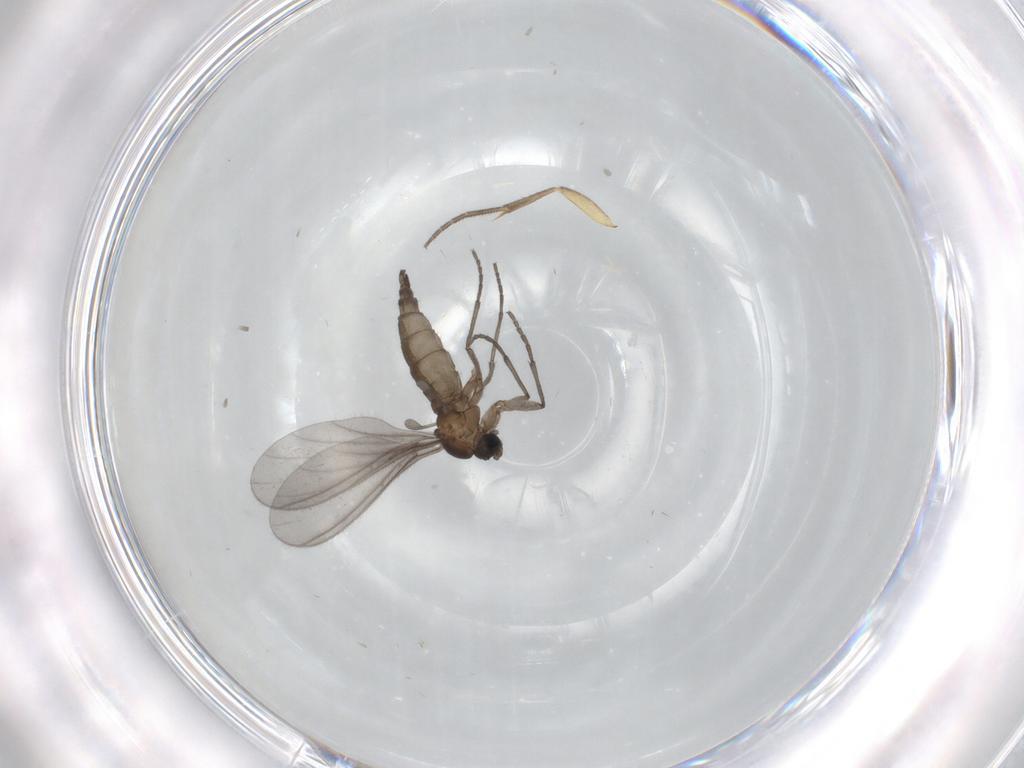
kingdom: Animalia
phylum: Arthropoda
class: Insecta
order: Diptera
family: Sciaridae
